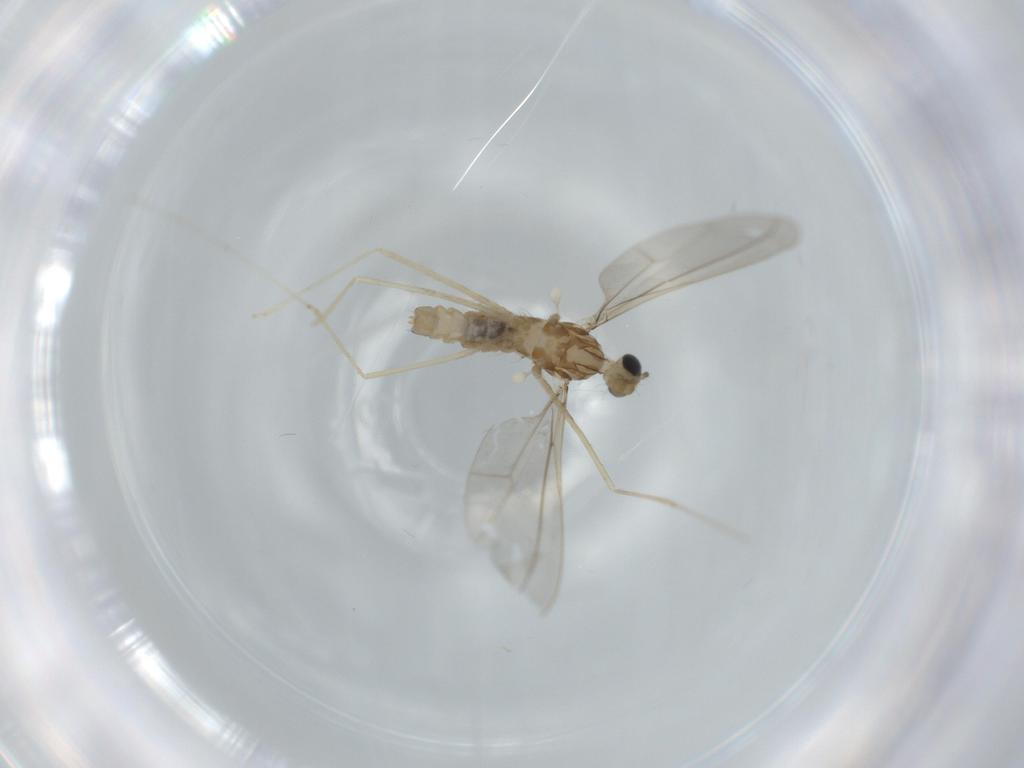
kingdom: Animalia
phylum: Arthropoda
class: Insecta
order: Diptera
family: Cecidomyiidae
